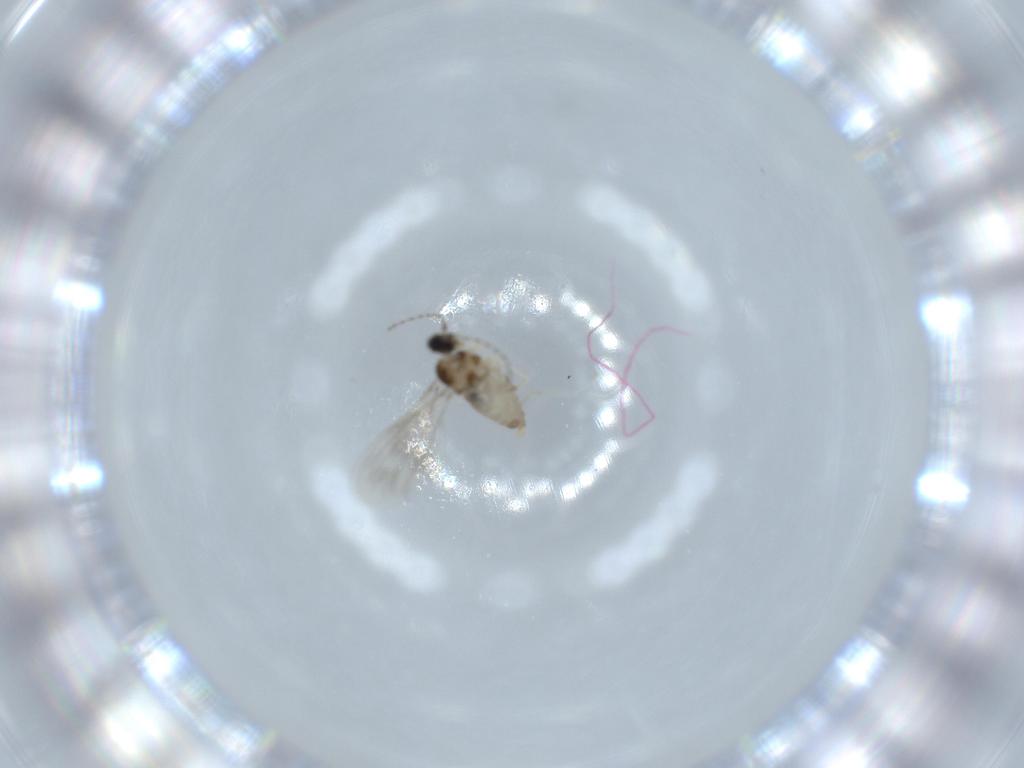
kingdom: Animalia
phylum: Arthropoda
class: Insecta
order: Diptera
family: Cecidomyiidae
